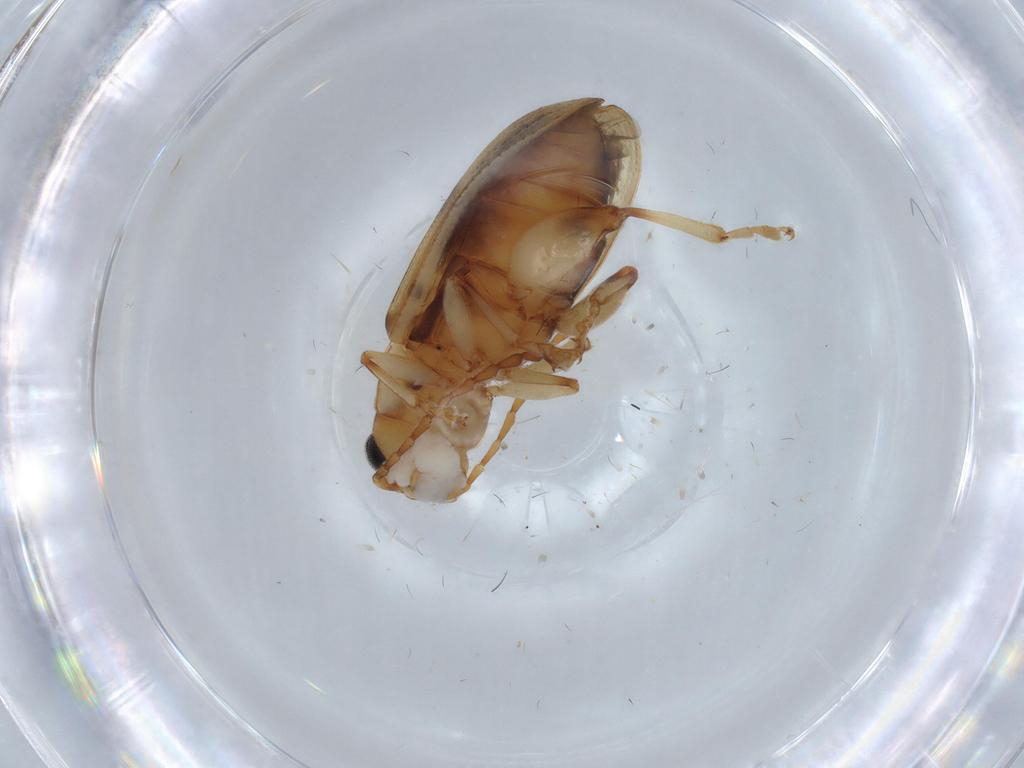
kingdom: Animalia
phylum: Arthropoda
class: Insecta
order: Coleoptera
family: Chrysomelidae
